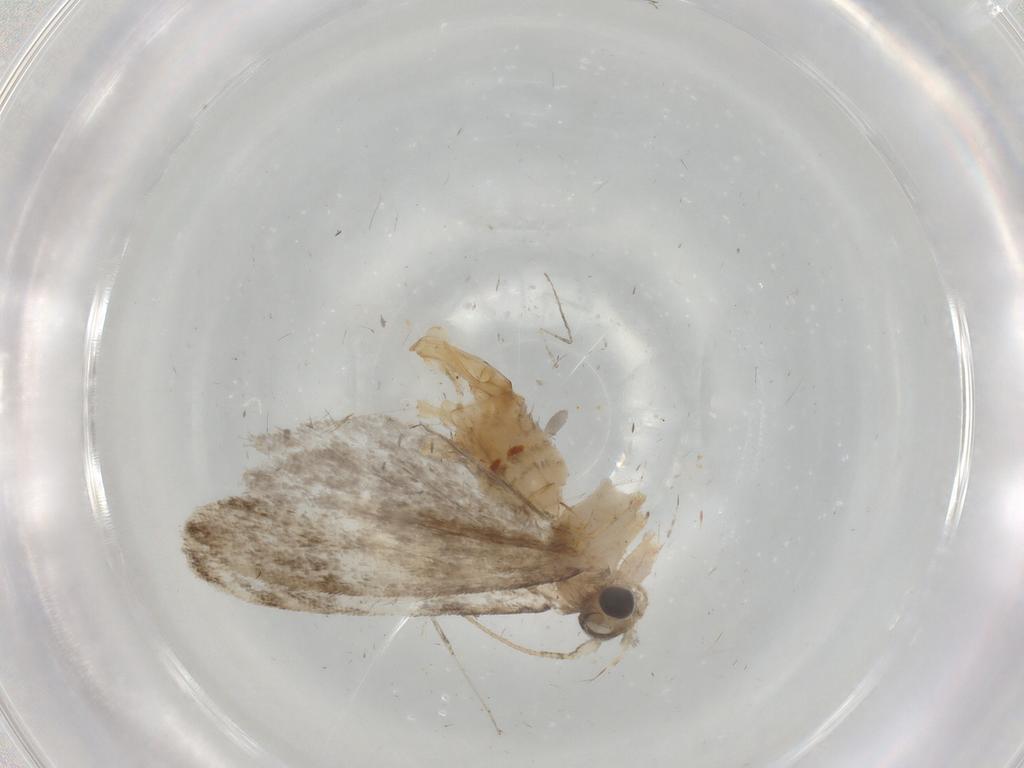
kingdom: Animalia
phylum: Arthropoda
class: Insecta
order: Lepidoptera
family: Tineidae
